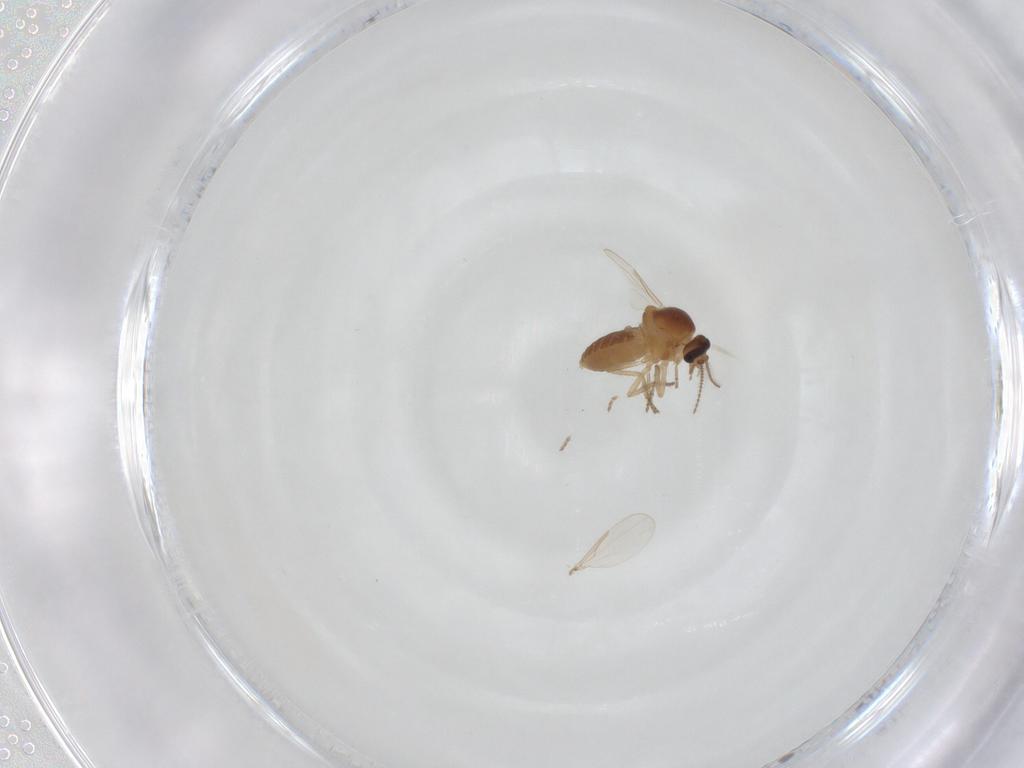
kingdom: Animalia
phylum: Arthropoda
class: Insecta
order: Diptera
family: Ceratopogonidae
